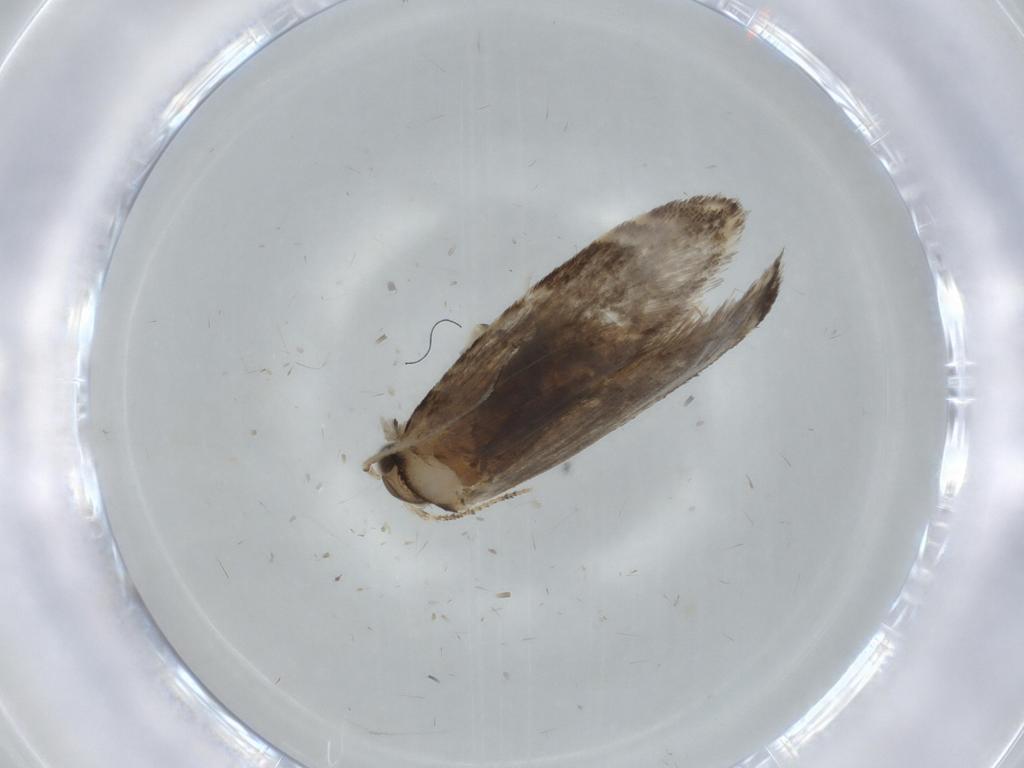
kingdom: Animalia
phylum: Arthropoda
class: Insecta
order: Lepidoptera
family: Tineidae
